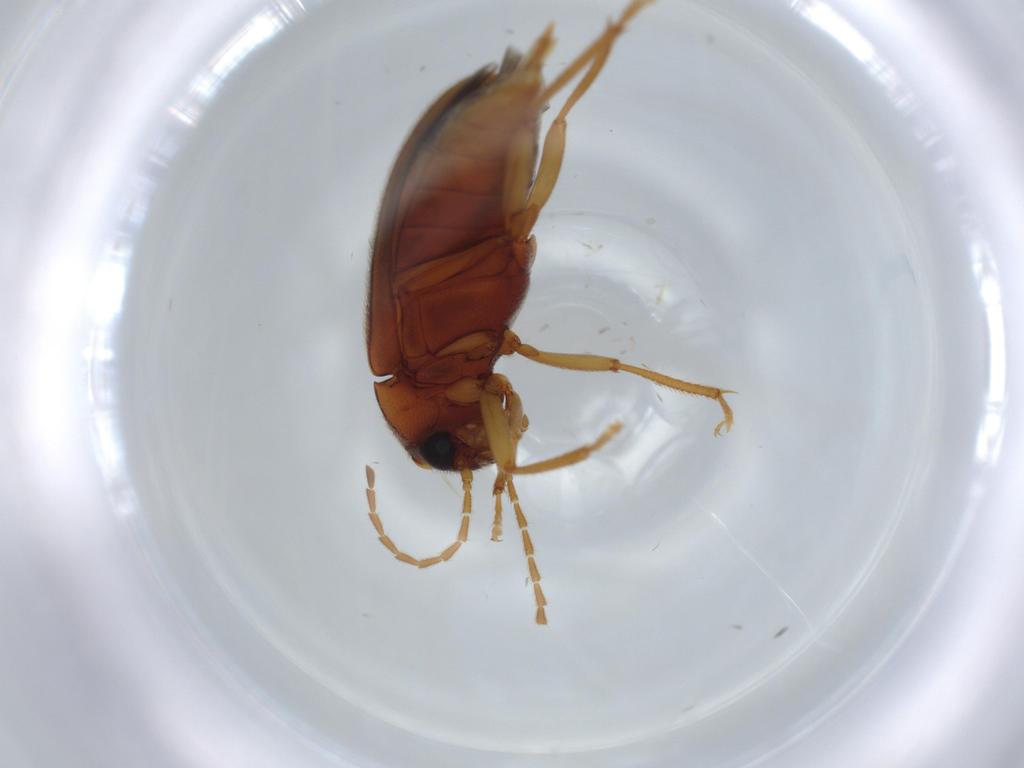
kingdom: Animalia
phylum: Arthropoda
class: Insecta
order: Coleoptera
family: Ptilodactylidae
